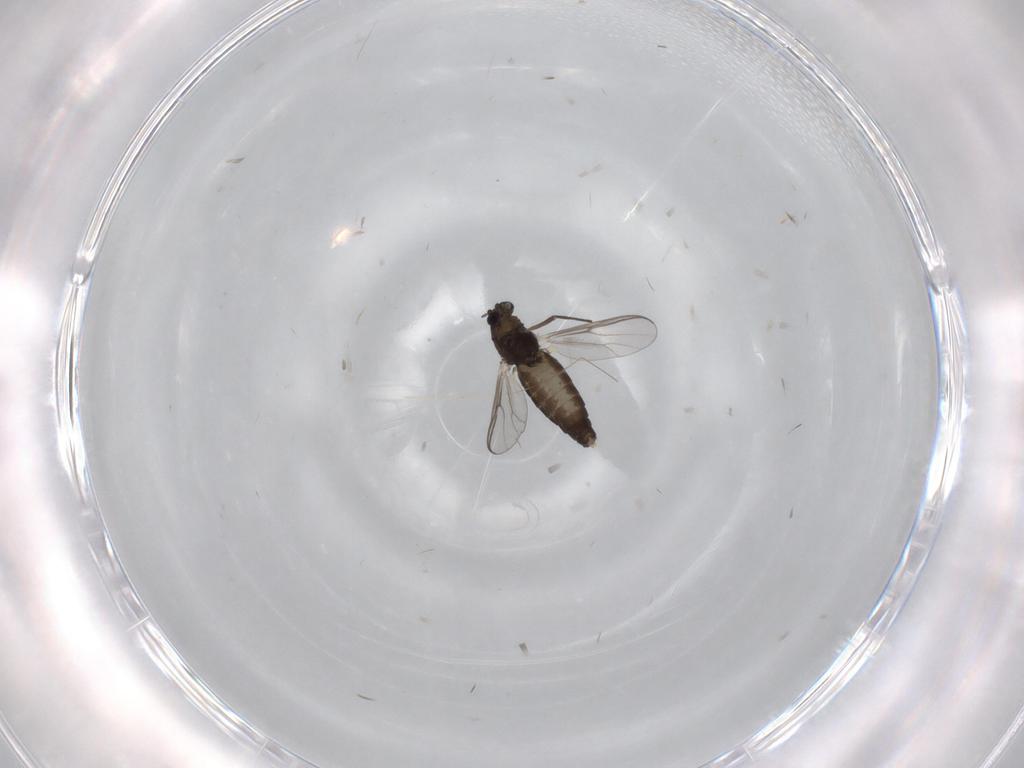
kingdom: Animalia
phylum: Arthropoda
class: Insecta
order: Diptera
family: Chironomidae
